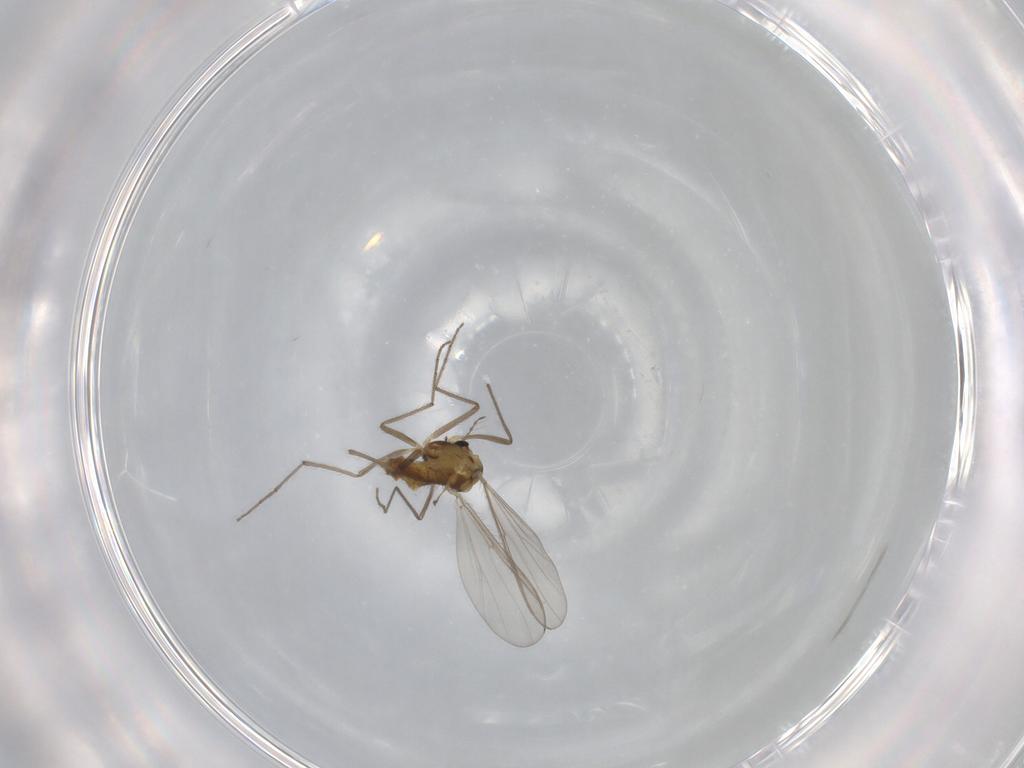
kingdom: Animalia
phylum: Arthropoda
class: Insecta
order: Diptera
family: Chironomidae
